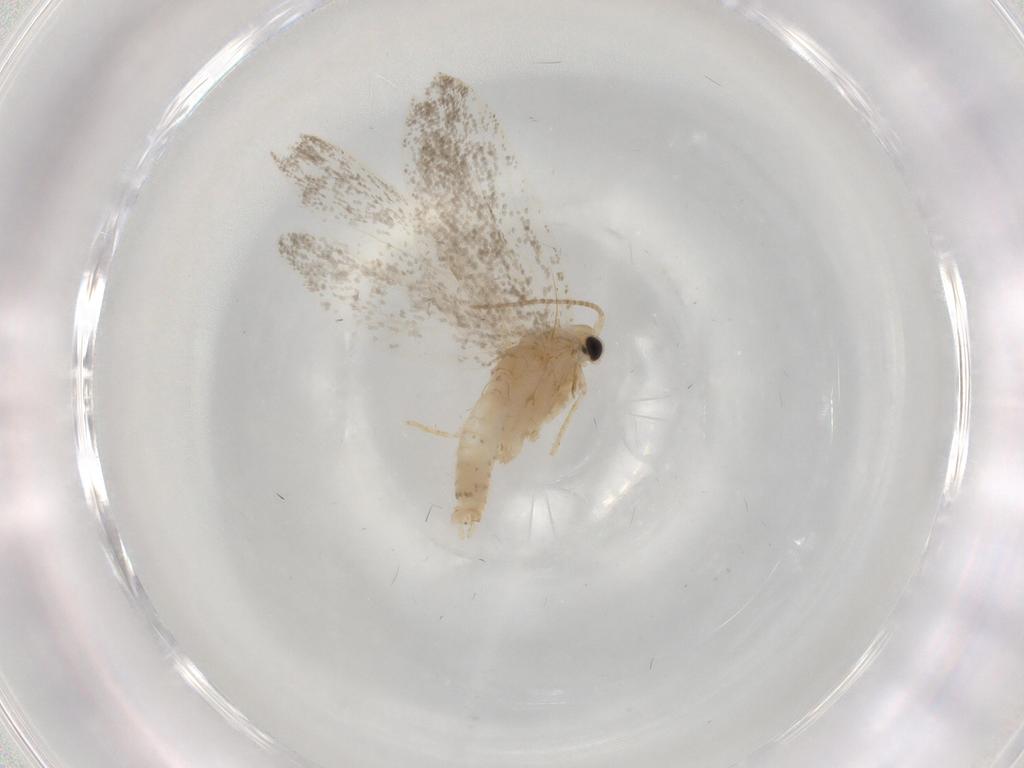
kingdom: Animalia
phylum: Arthropoda
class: Insecta
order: Lepidoptera
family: Psychidae
